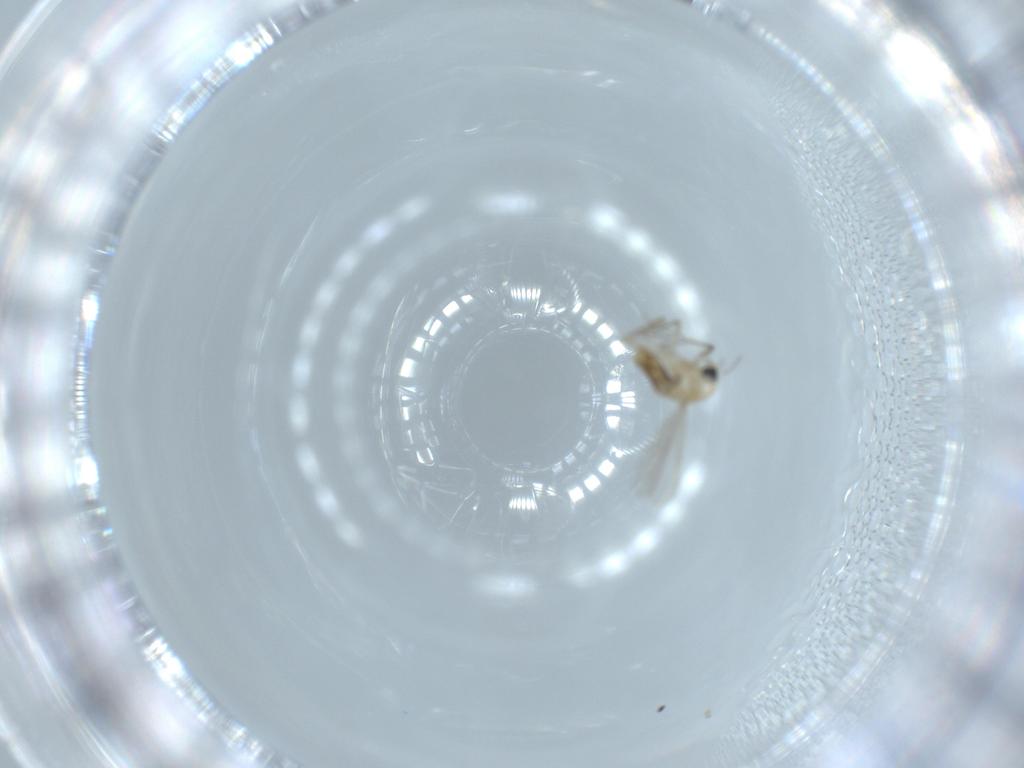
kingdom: Animalia
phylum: Arthropoda
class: Insecta
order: Diptera
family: Chironomidae
